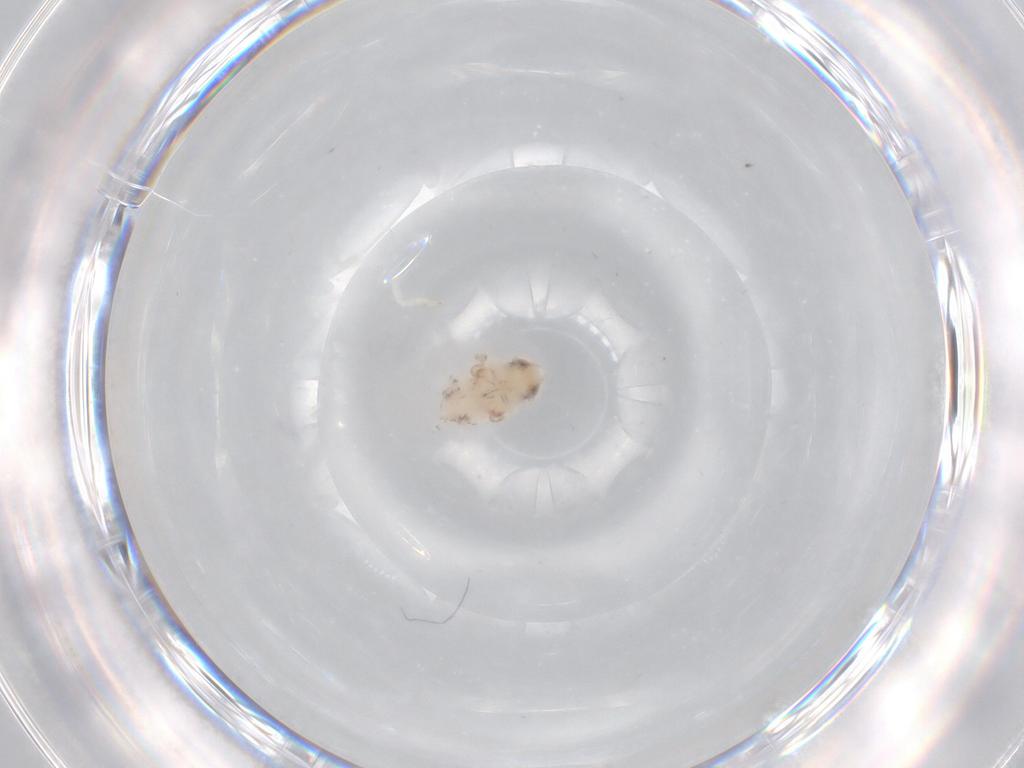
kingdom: Animalia
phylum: Arthropoda
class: Insecta
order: Hemiptera
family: Nogodinidae
